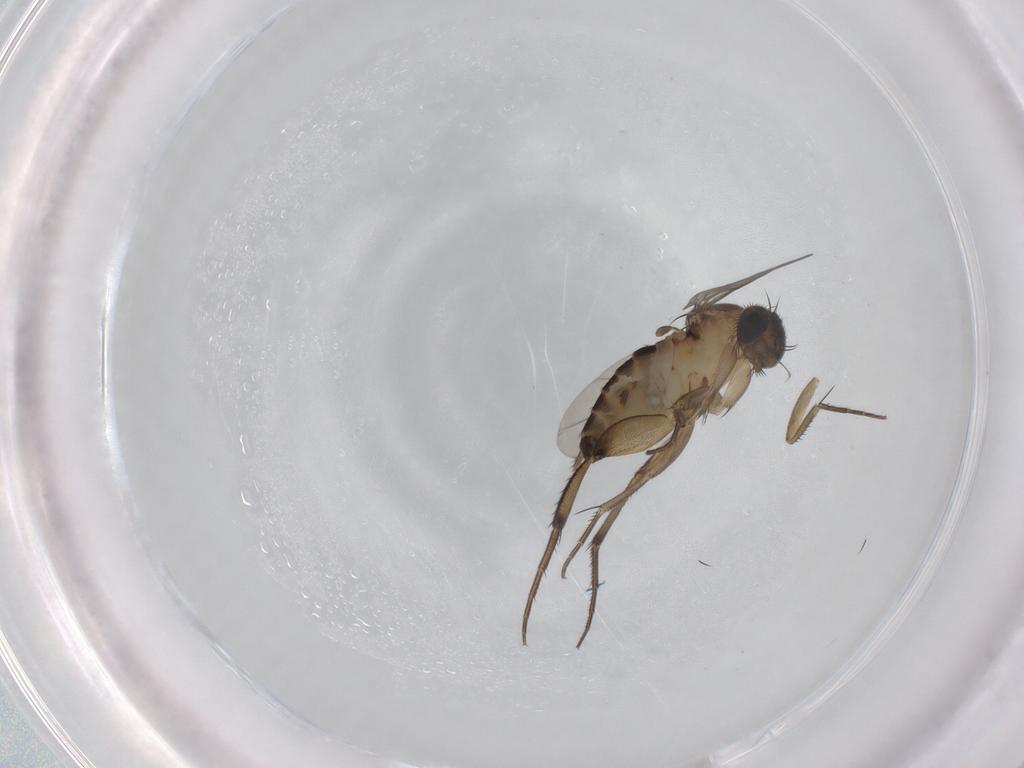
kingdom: Animalia
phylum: Arthropoda
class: Insecta
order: Diptera
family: Phoridae
